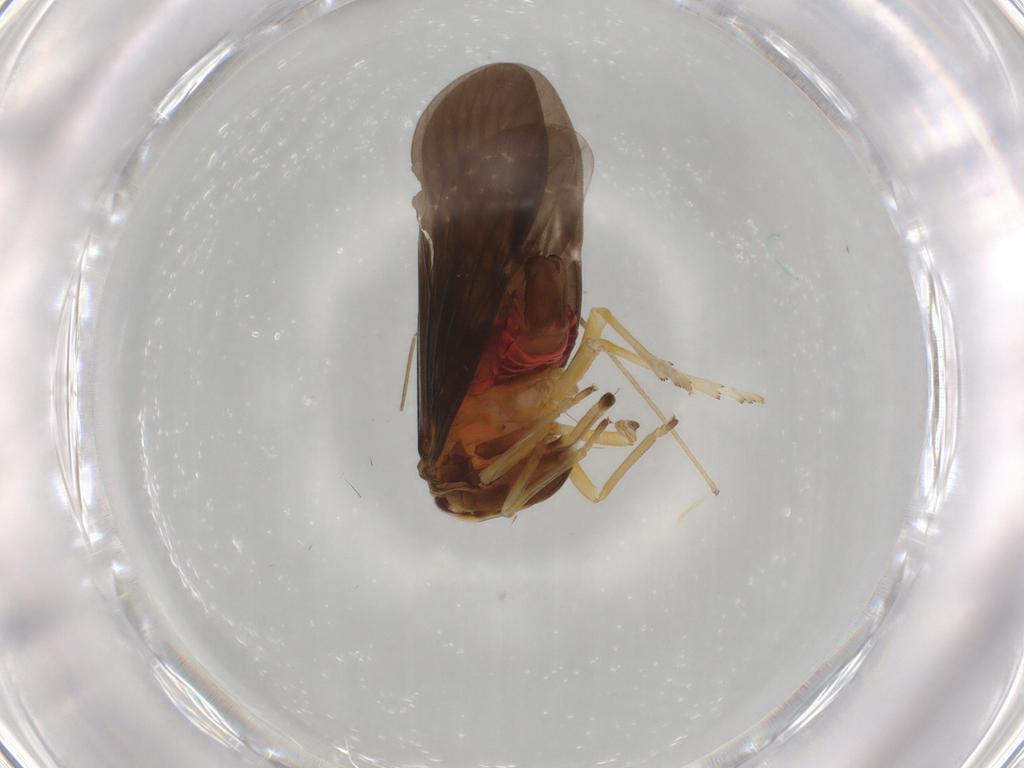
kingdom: Animalia
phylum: Arthropoda
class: Insecta
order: Hemiptera
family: Derbidae
